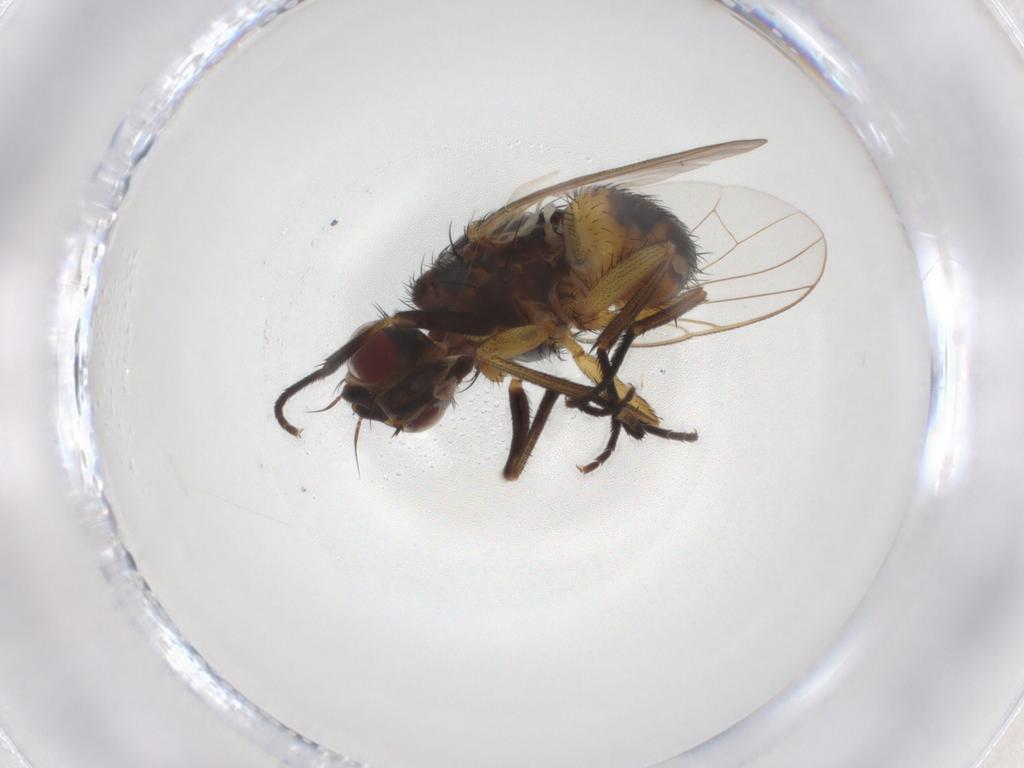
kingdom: Animalia
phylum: Arthropoda
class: Insecta
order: Diptera
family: Muscidae
